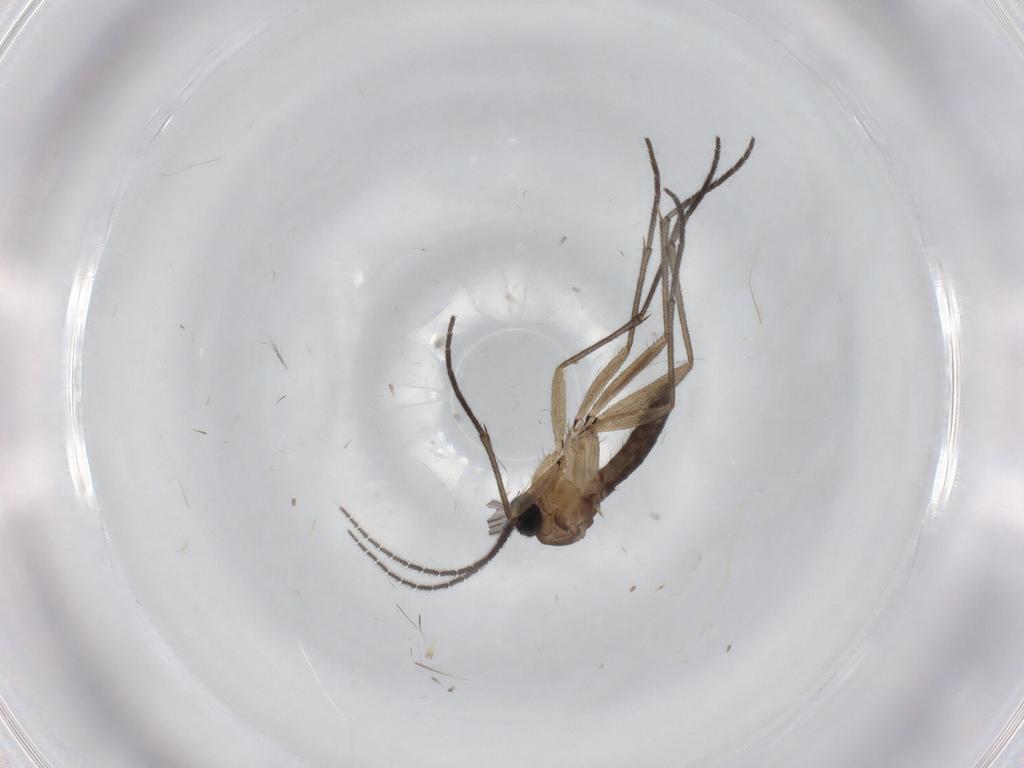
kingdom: Animalia
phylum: Arthropoda
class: Insecta
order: Diptera
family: Cecidomyiidae
